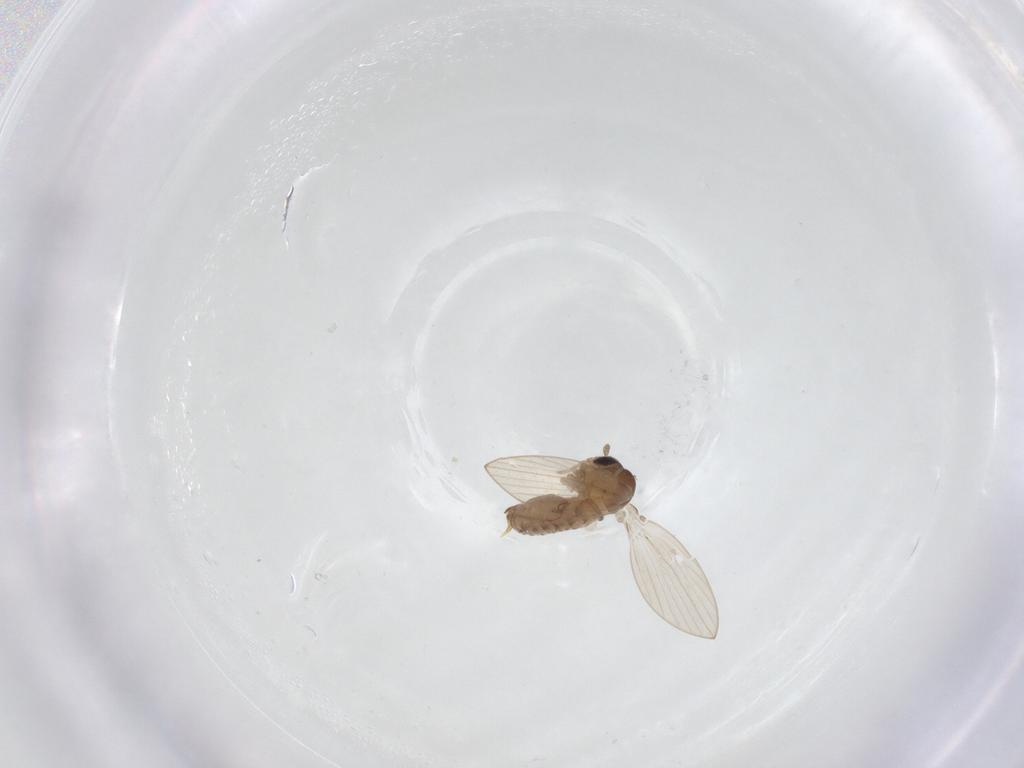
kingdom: Animalia
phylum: Arthropoda
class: Insecta
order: Diptera
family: Psychodidae
